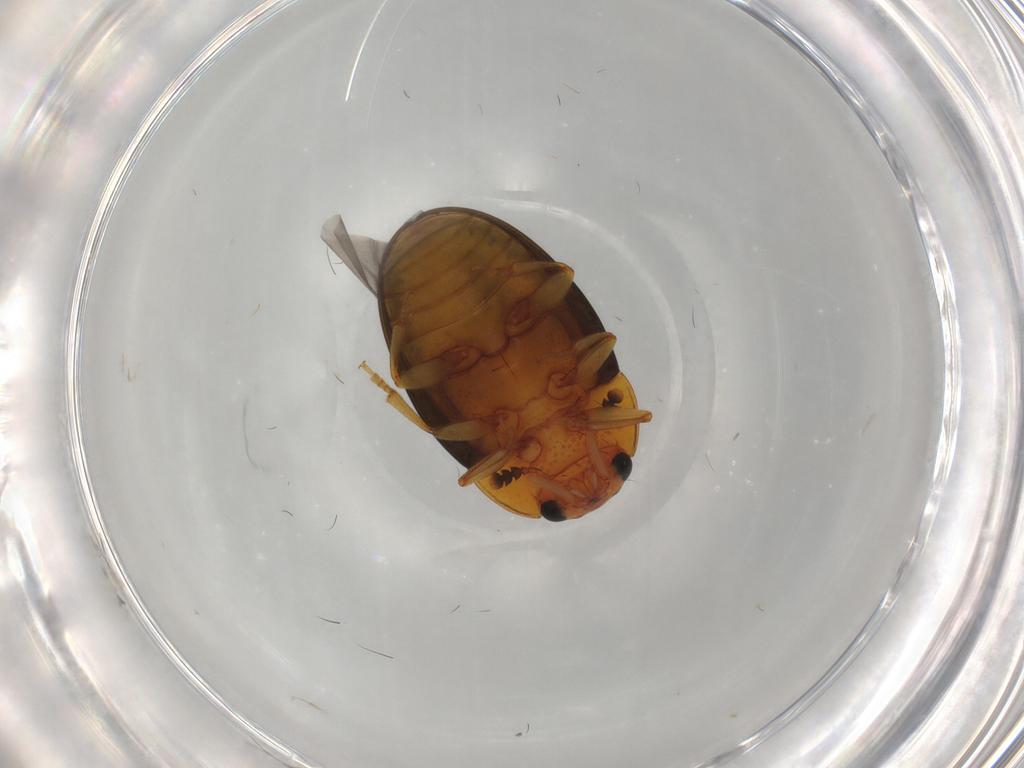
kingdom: Animalia
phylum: Arthropoda
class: Insecta
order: Coleoptera
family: Erotylidae
